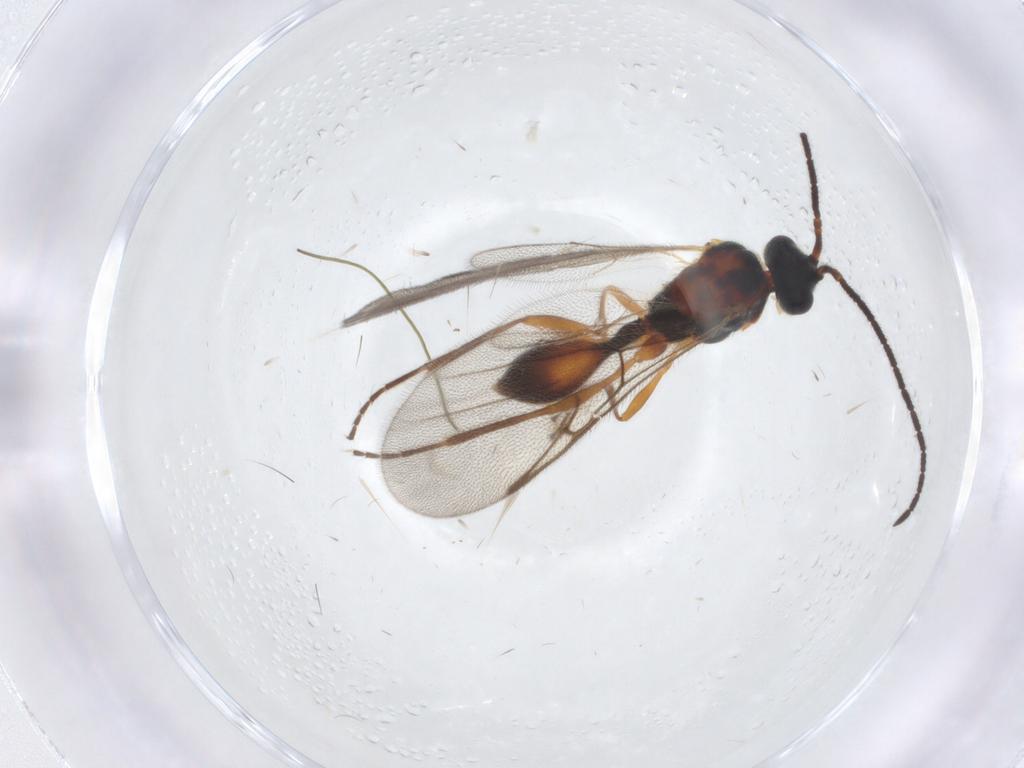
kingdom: Animalia
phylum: Arthropoda
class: Insecta
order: Hymenoptera
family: Diapriidae
